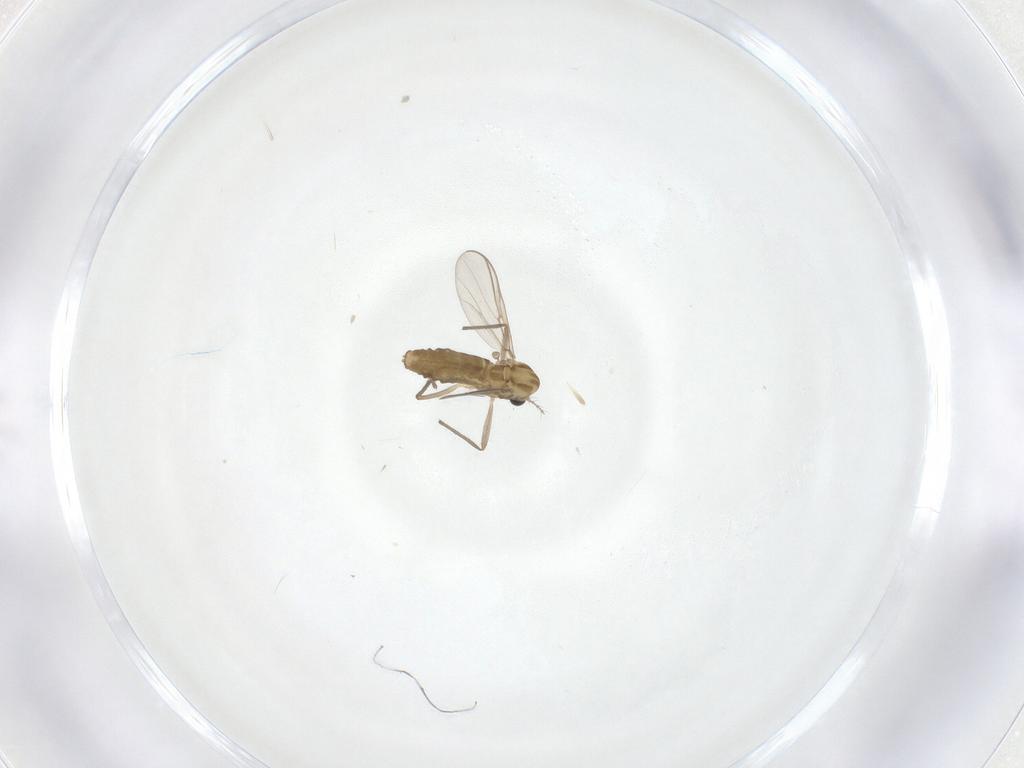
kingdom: Animalia
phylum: Arthropoda
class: Insecta
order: Diptera
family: Chironomidae
